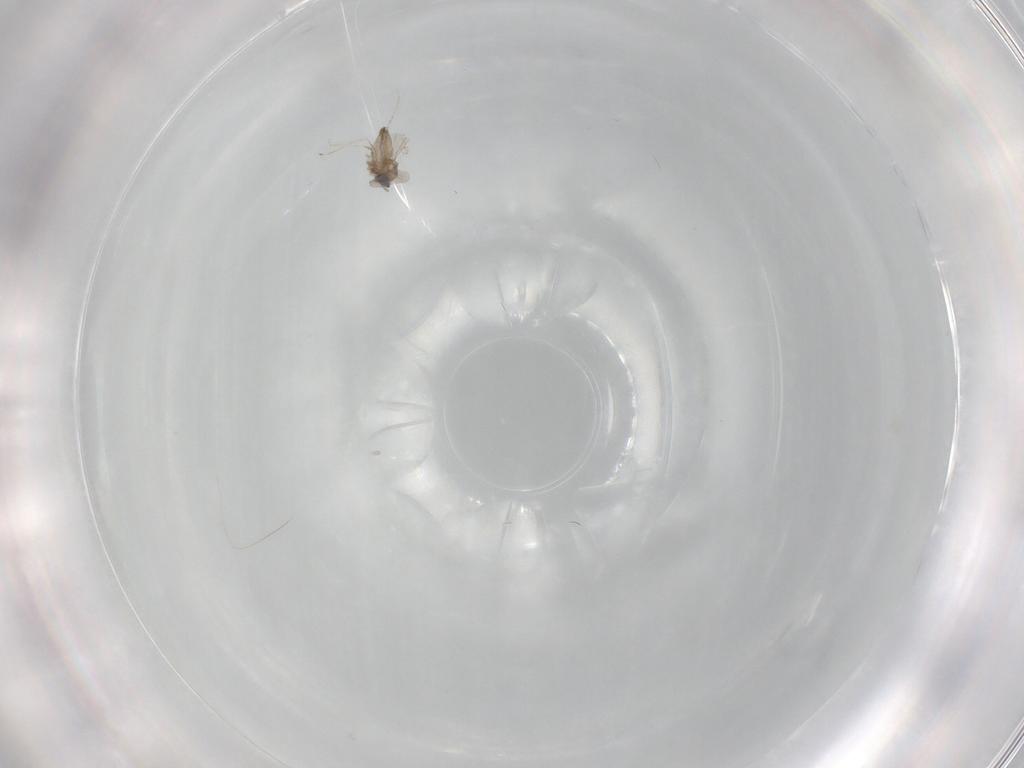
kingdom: Animalia
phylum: Arthropoda
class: Insecta
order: Diptera
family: Tabanidae
